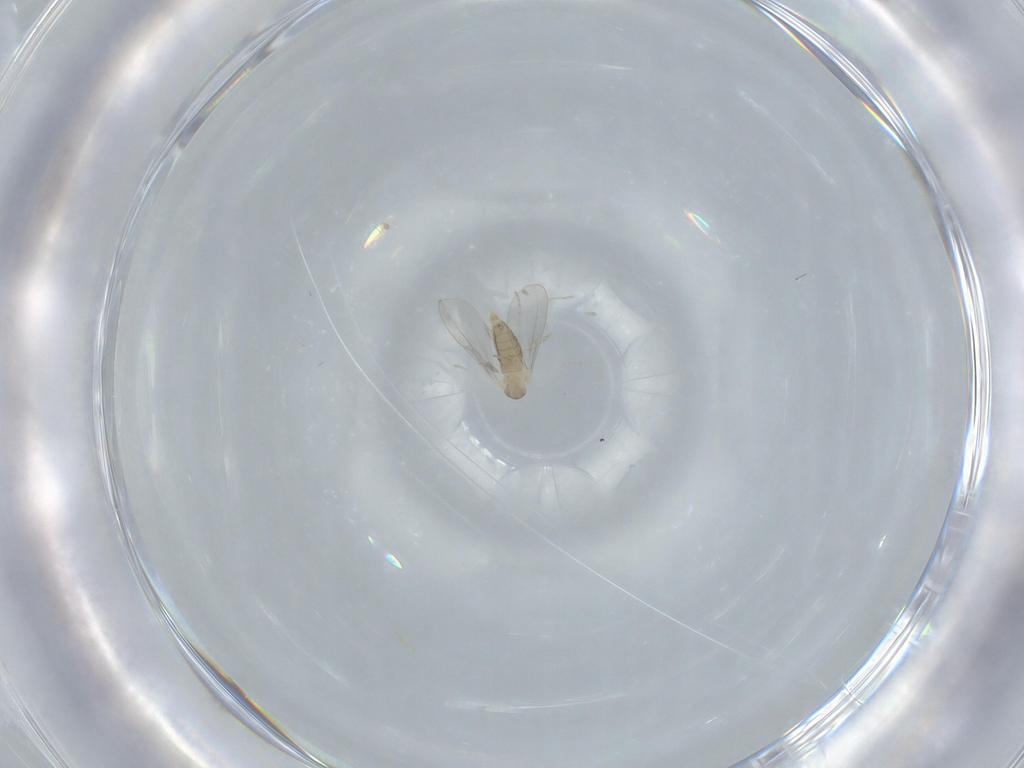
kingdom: Animalia
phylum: Arthropoda
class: Insecta
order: Diptera
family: Cecidomyiidae
